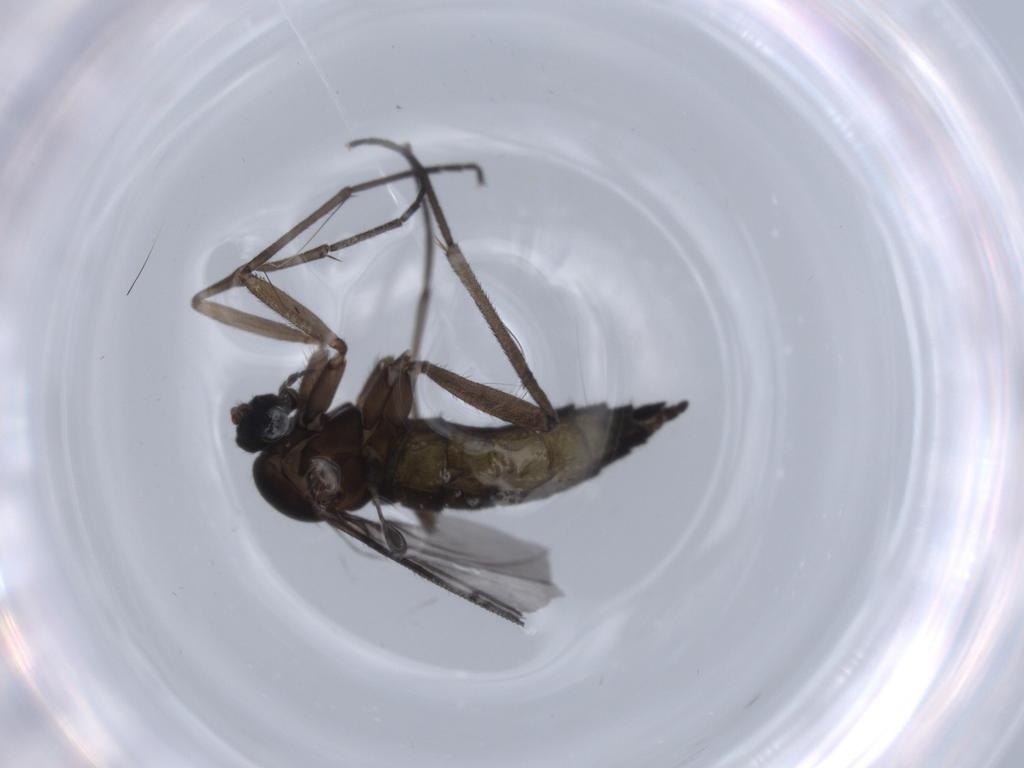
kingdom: Animalia
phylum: Arthropoda
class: Insecta
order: Diptera
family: Sciaridae
